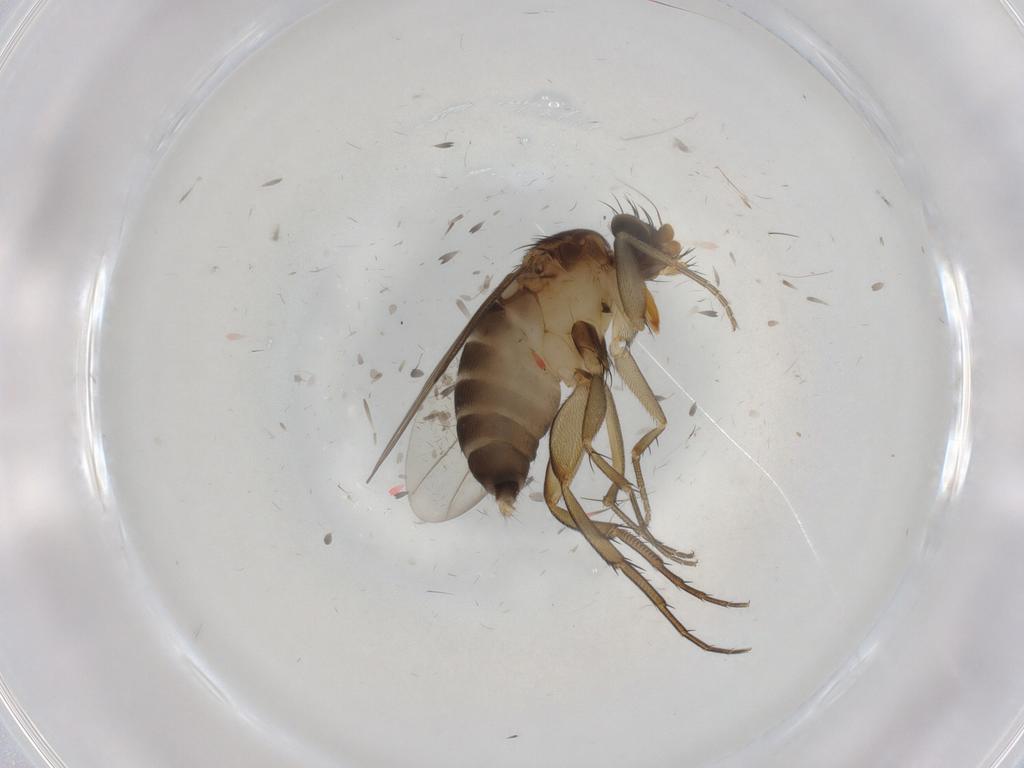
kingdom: Animalia
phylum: Arthropoda
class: Insecta
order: Diptera
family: Phoridae
